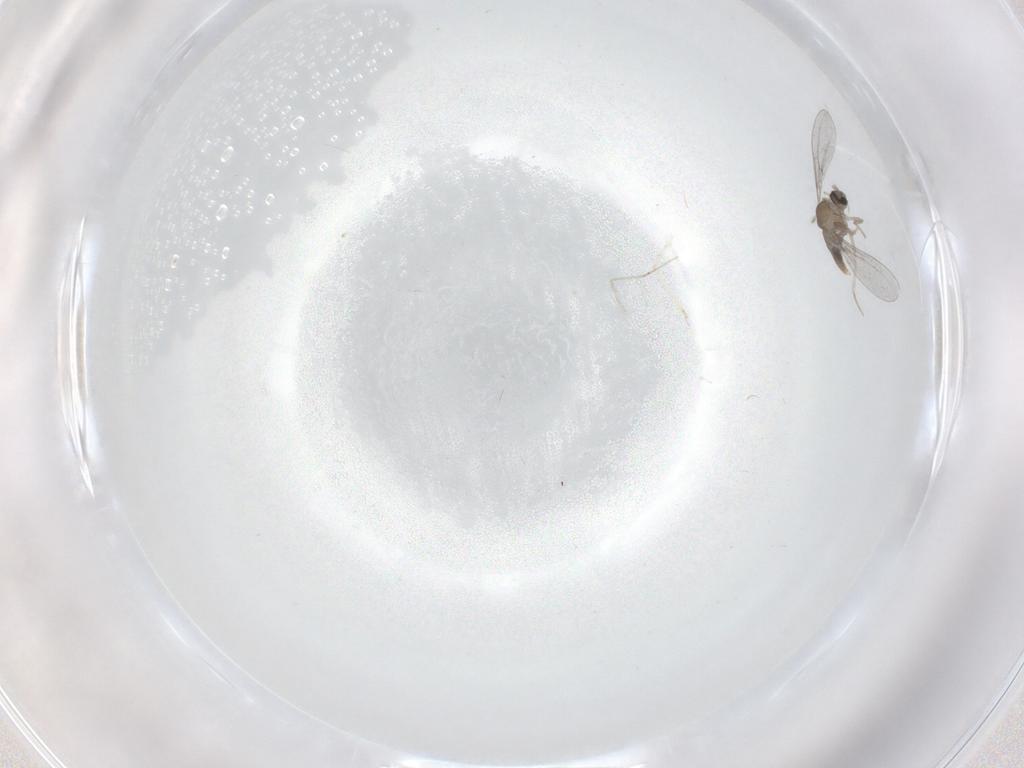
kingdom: Animalia
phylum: Arthropoda
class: Insecta
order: Diptera
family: Cecidomyiidae
